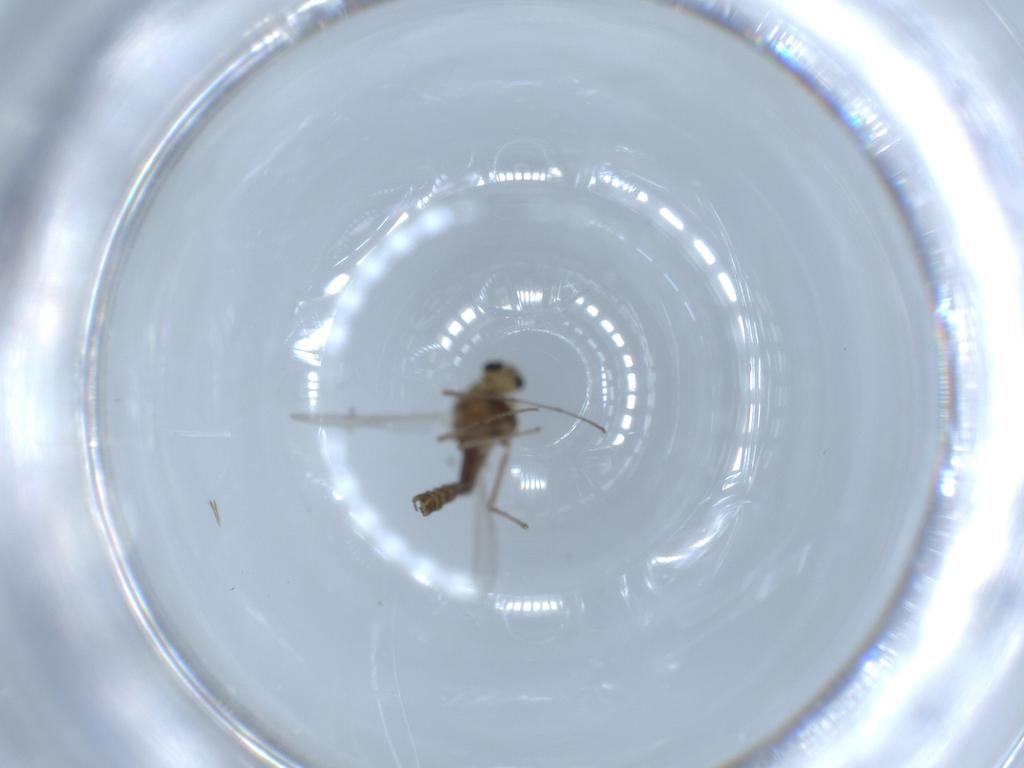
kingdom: Animalia
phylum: Arthropoda
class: Insecta
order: Diptera
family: Chironomidae
